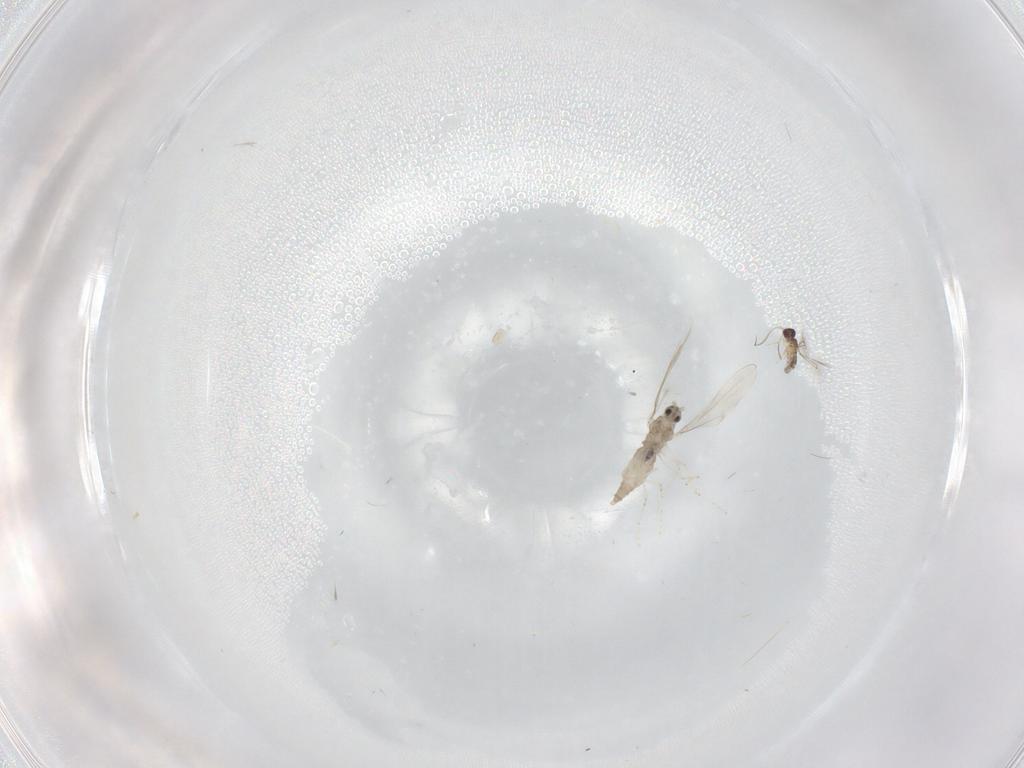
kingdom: Animalia
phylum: Arthropoda
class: Insecta
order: Diptera
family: Cecidomyiidae
